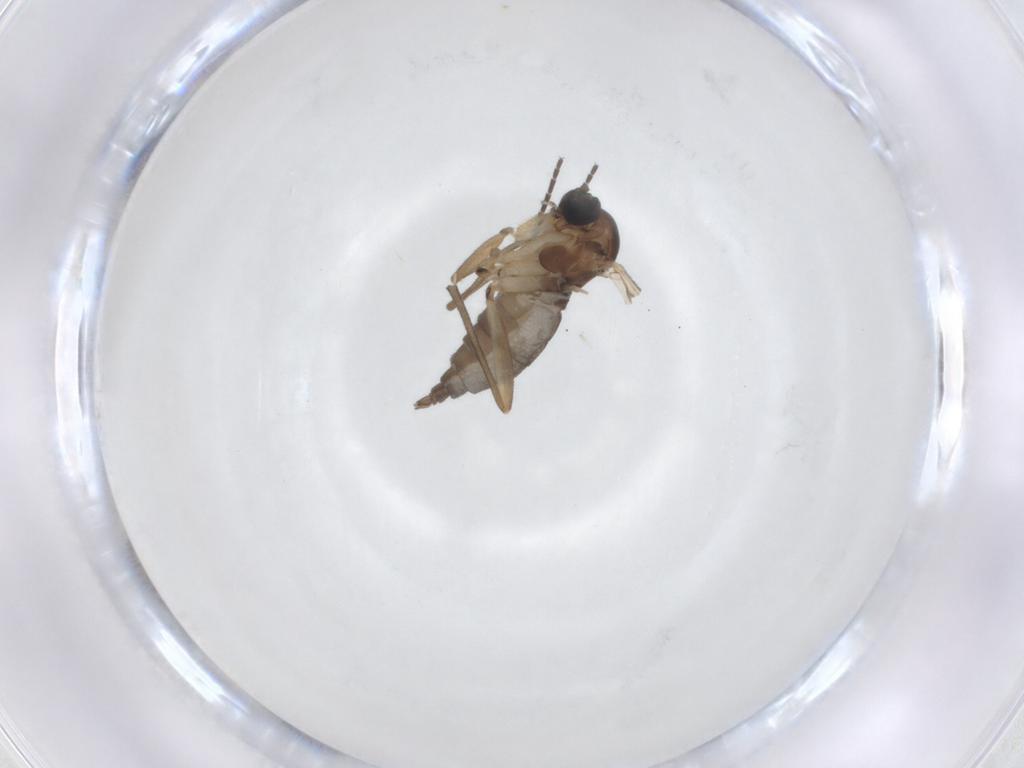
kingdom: Animalia
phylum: Arthropoda
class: Insecta
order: Diptera
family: Sciaridae
